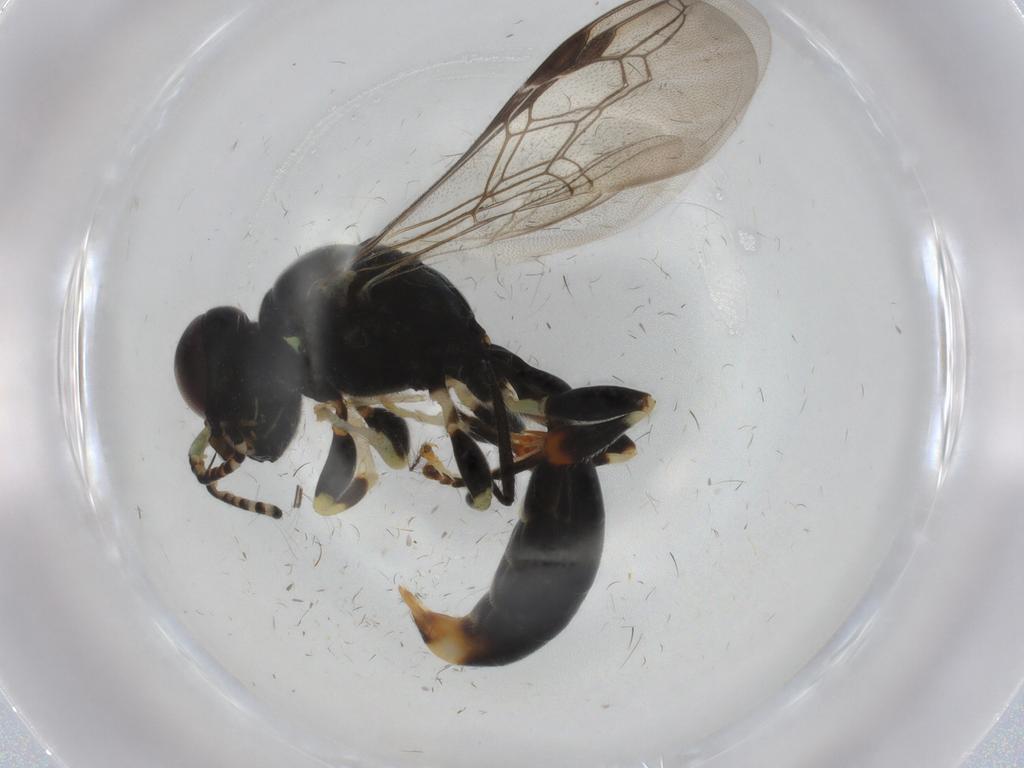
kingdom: Animalia
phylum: Arthropoda
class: Insecta
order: Hymenoptera
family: Crabronidae
